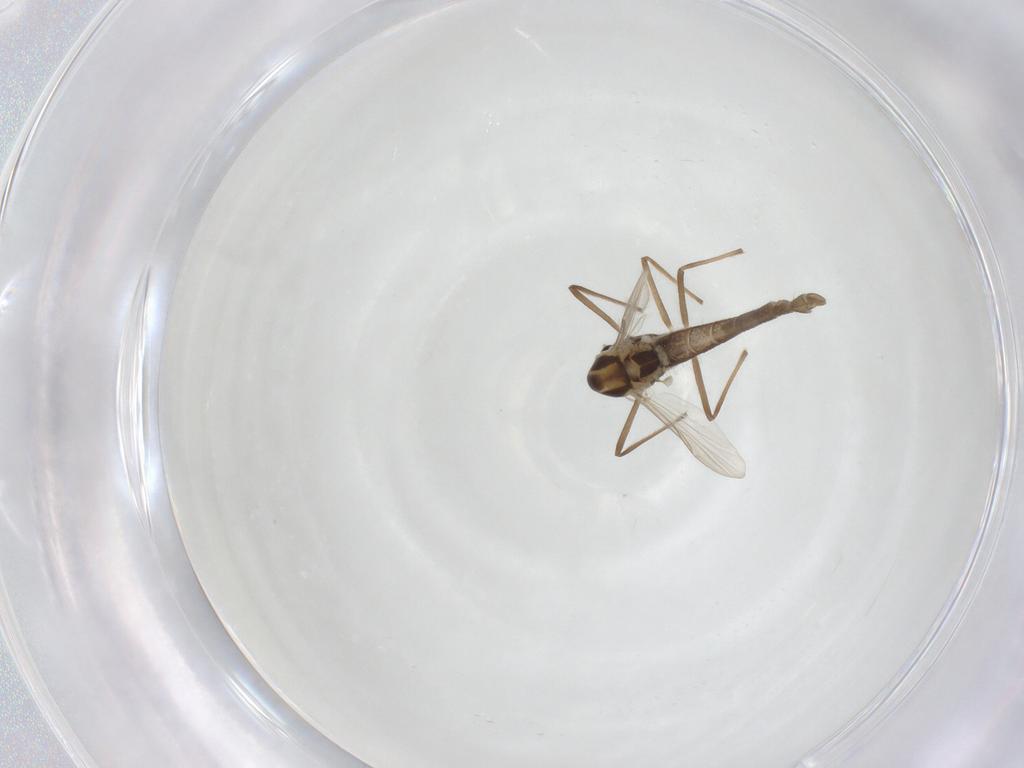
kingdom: Animalia
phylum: Arthropoda
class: Insecta
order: Diptera
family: Chironomidae
